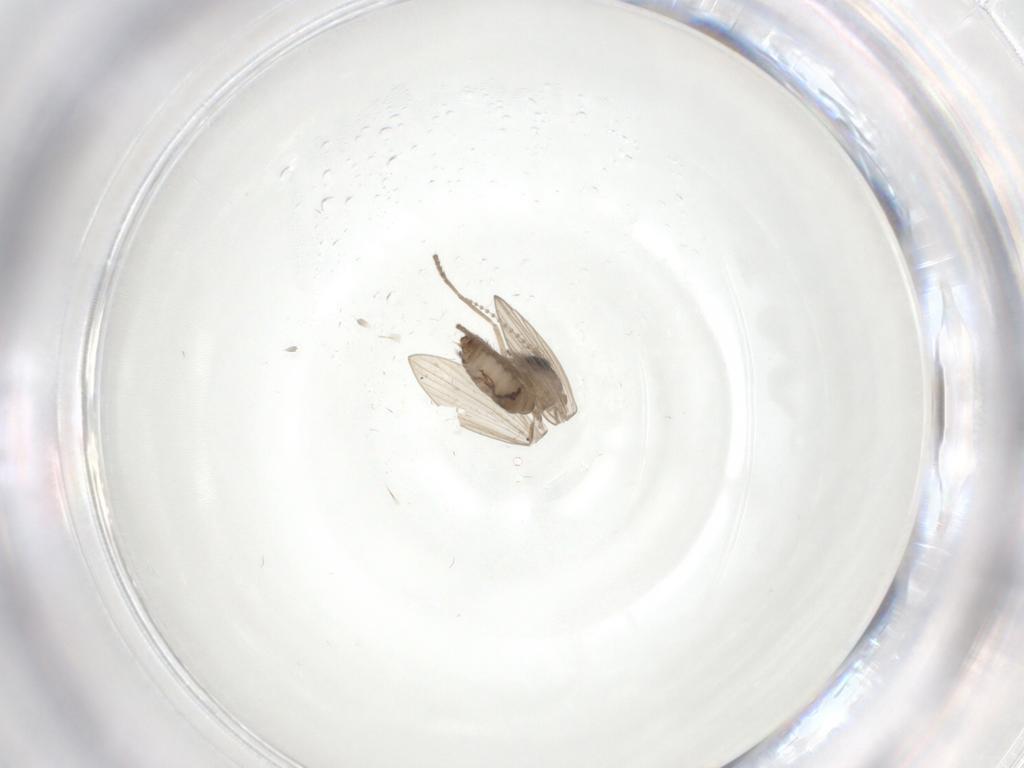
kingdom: Animalia
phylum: Arthropoda
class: Insecta
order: Diptera
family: Psychodidae
